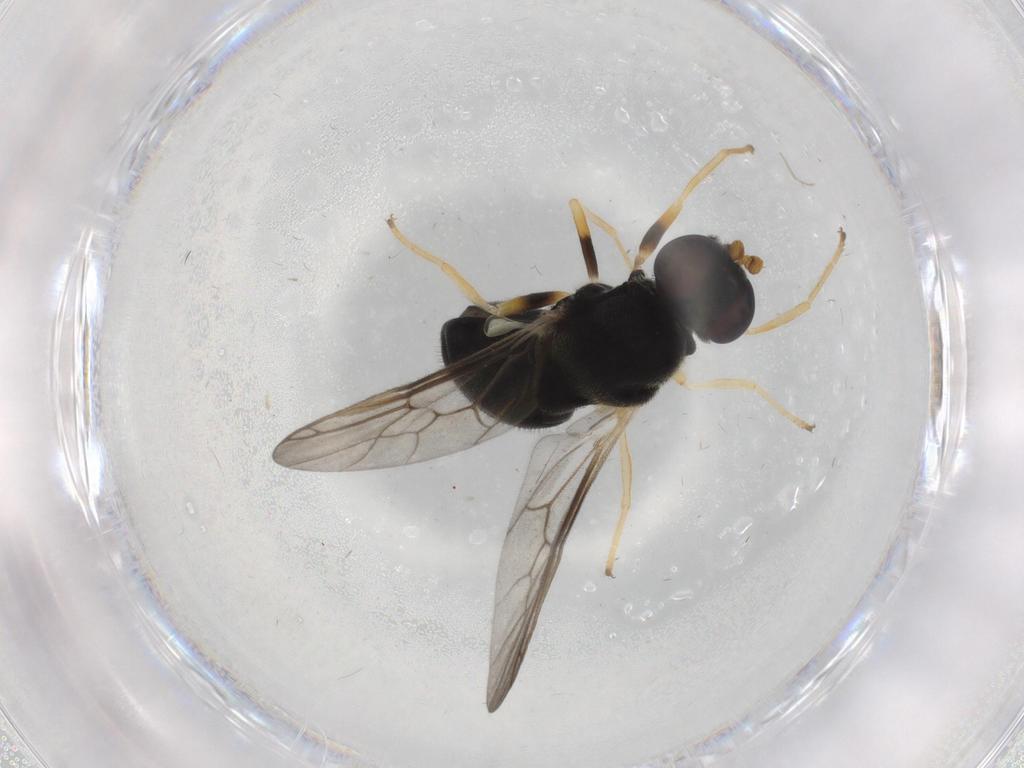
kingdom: Animalia
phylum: Arthropoda
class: Insecta
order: Diptera
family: Stratiomyidae
